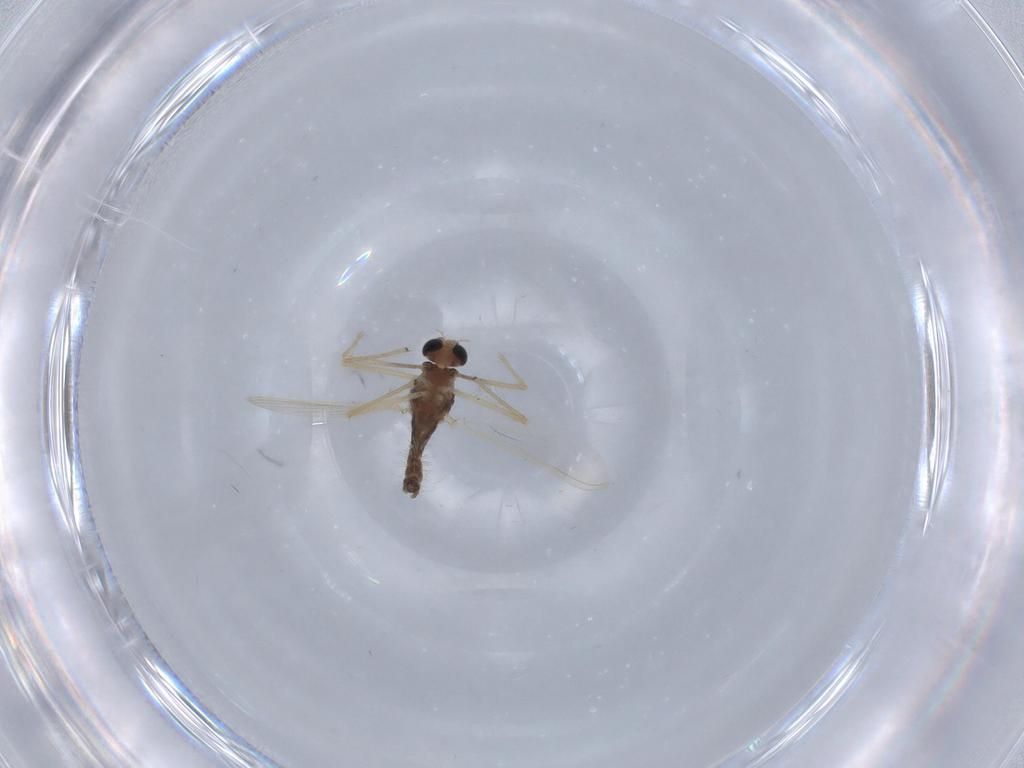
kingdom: Animalia
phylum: Arthropoda
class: Insecta
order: Diptera
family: Chironomidae
